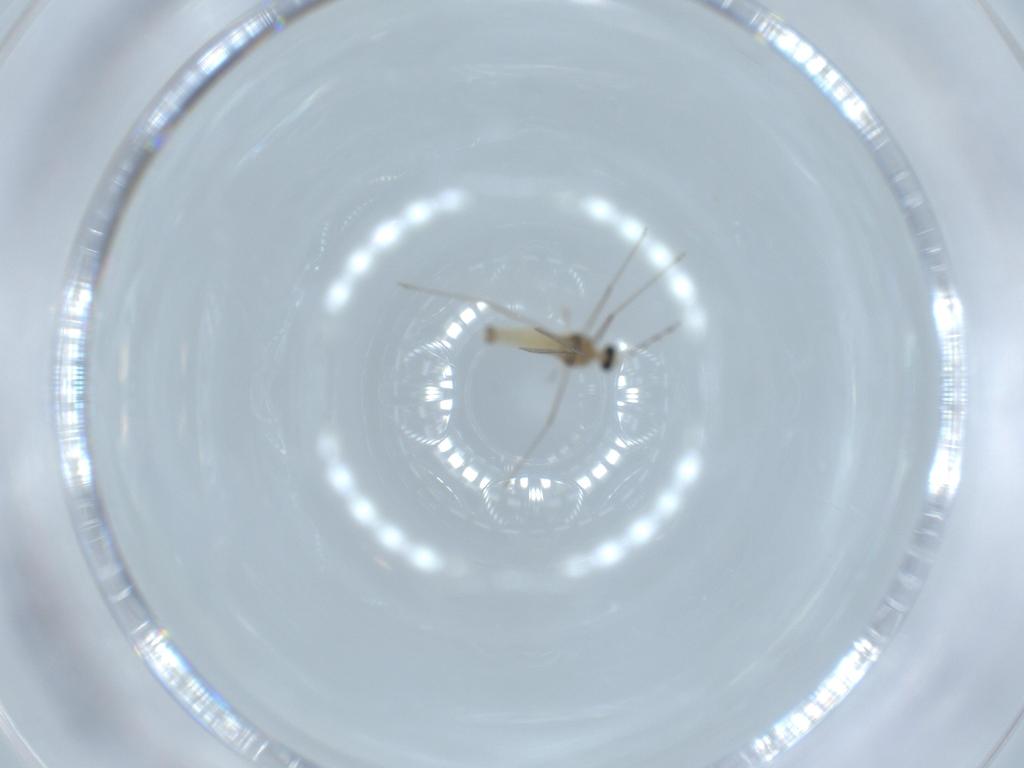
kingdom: Animalia
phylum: Arthropoda
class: Insecta
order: Diptera
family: Cecidomyiidae
